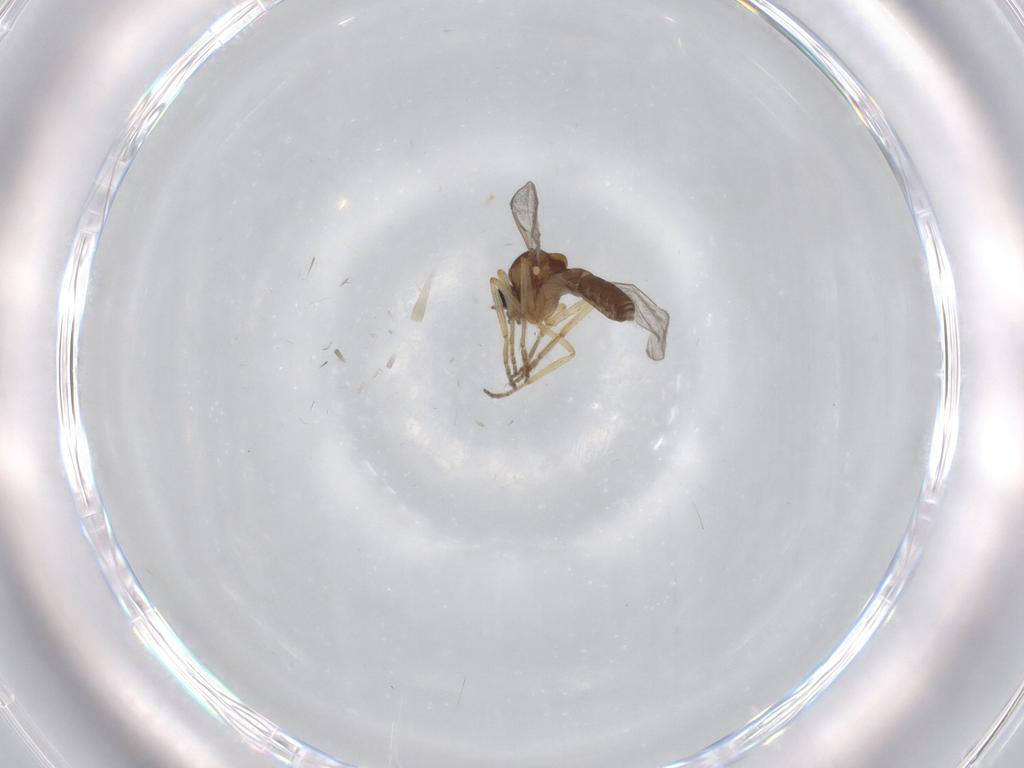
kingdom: Animalia
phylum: Arthropoda
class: Insecta
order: Diptera
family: Ceratopogonidae
